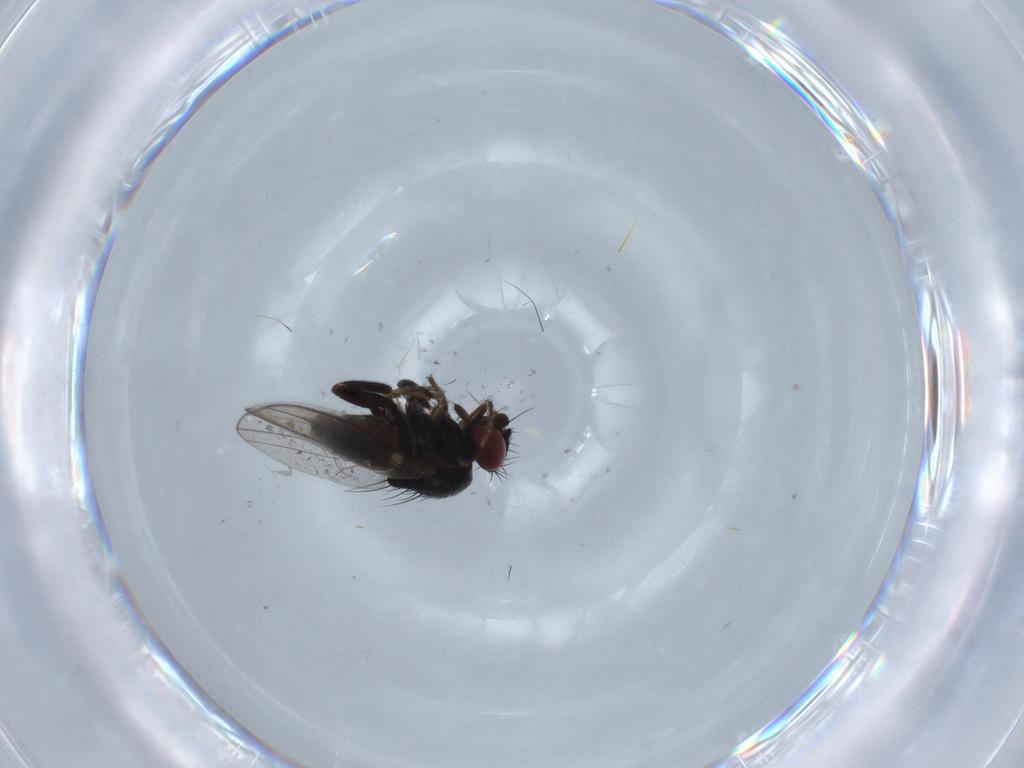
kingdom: Animalia
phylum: Arthropoda
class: Insecta
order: Diptera
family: Milichiidae
